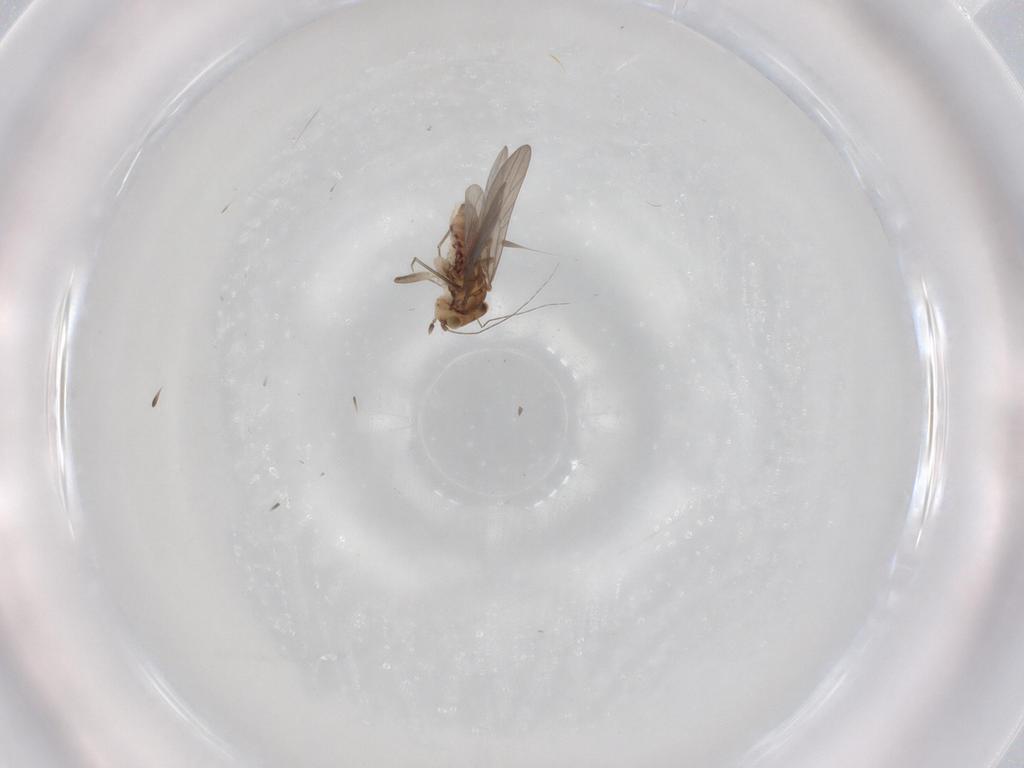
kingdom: Animalia
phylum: Arthropoda
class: Insecta
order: Psocodea
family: Lepidopsocidae
